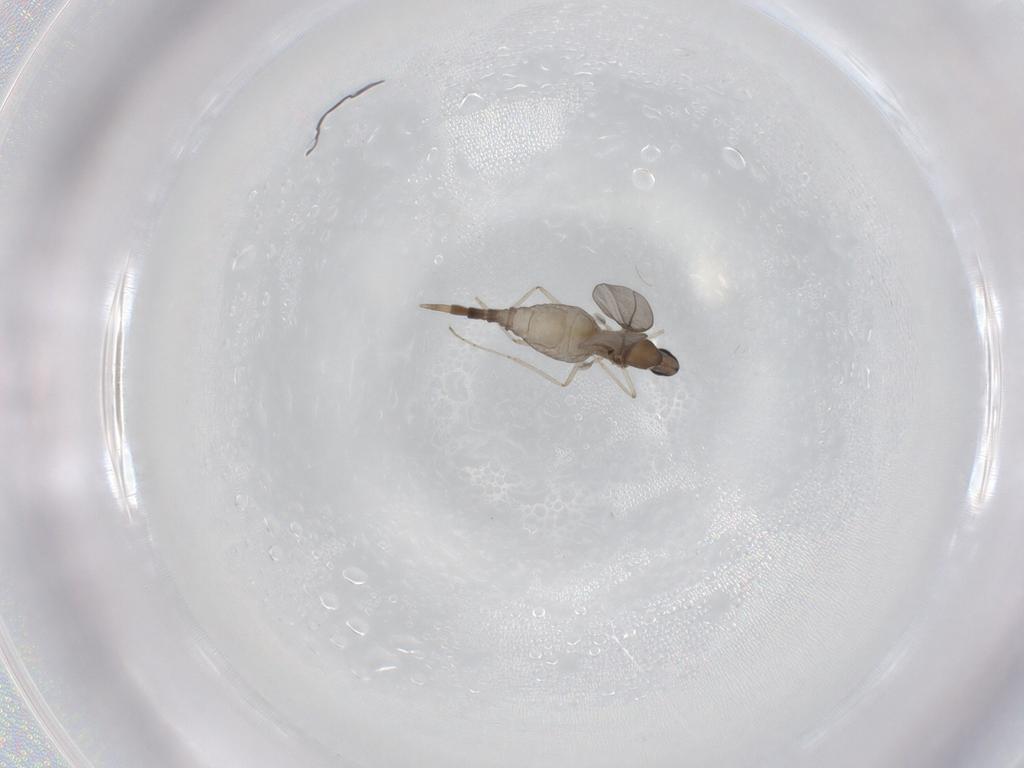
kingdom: Animalia
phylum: Arthropoda
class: Insecta
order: Diptera
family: Cecidomyiidae
